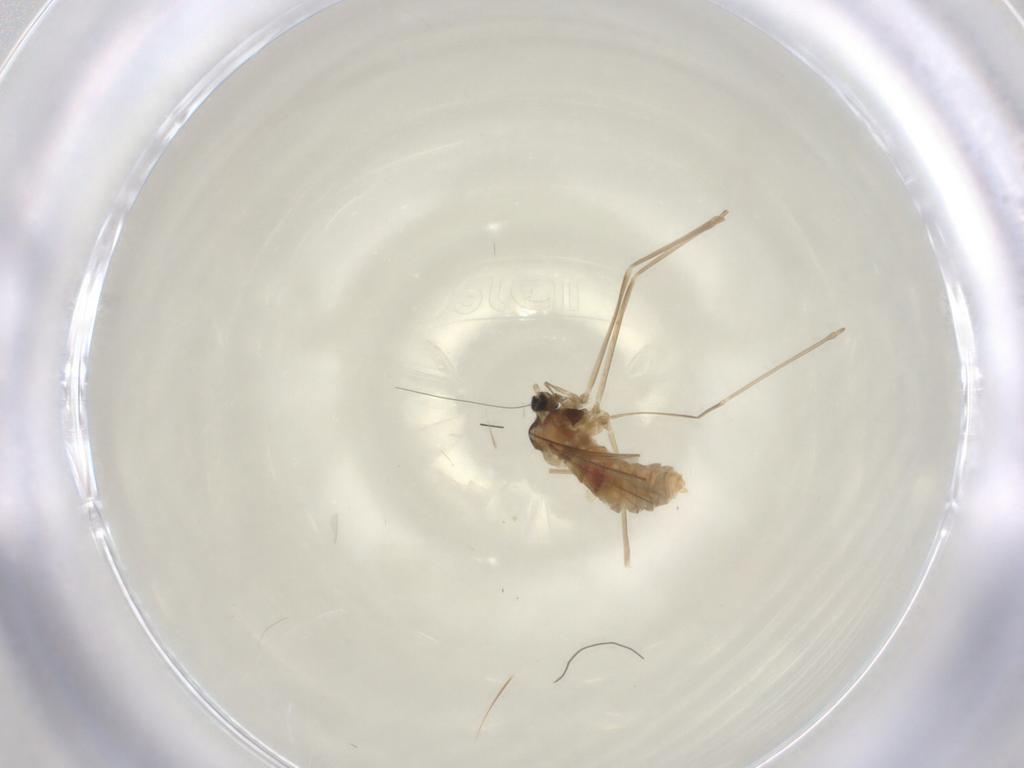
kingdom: Animalia
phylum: Arthropoda
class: Insecta
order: Diptera
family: Cecidomyiidae
